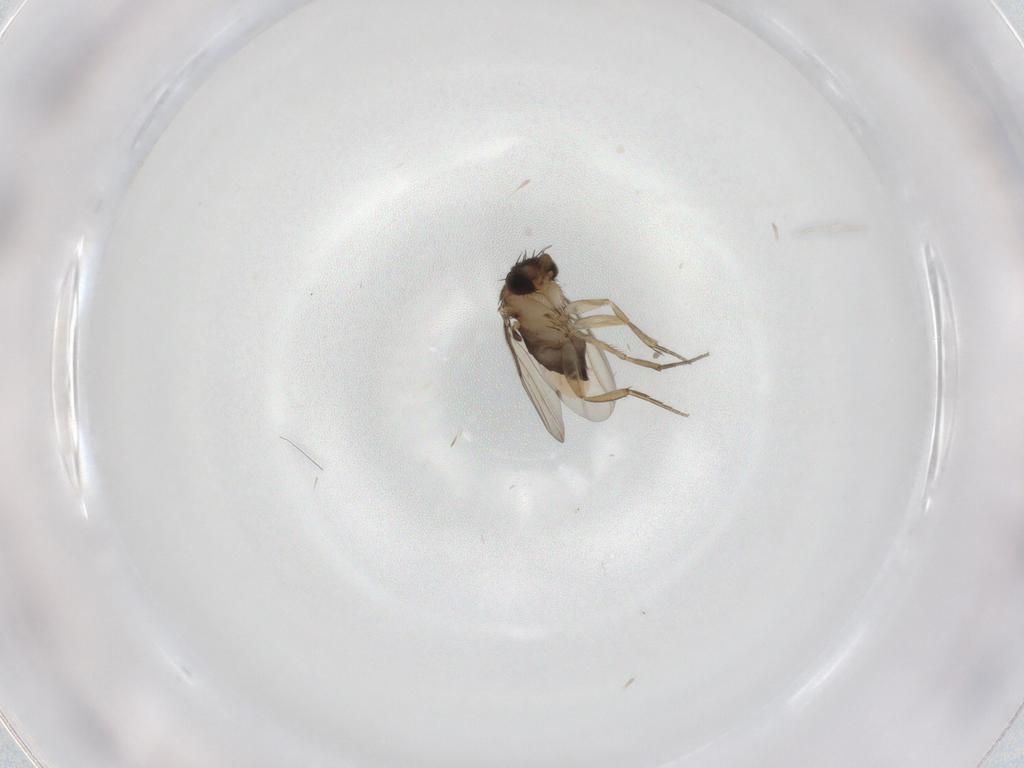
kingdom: Animalia
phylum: Arthropoda
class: Insecta
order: Diptera
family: Phoridae
